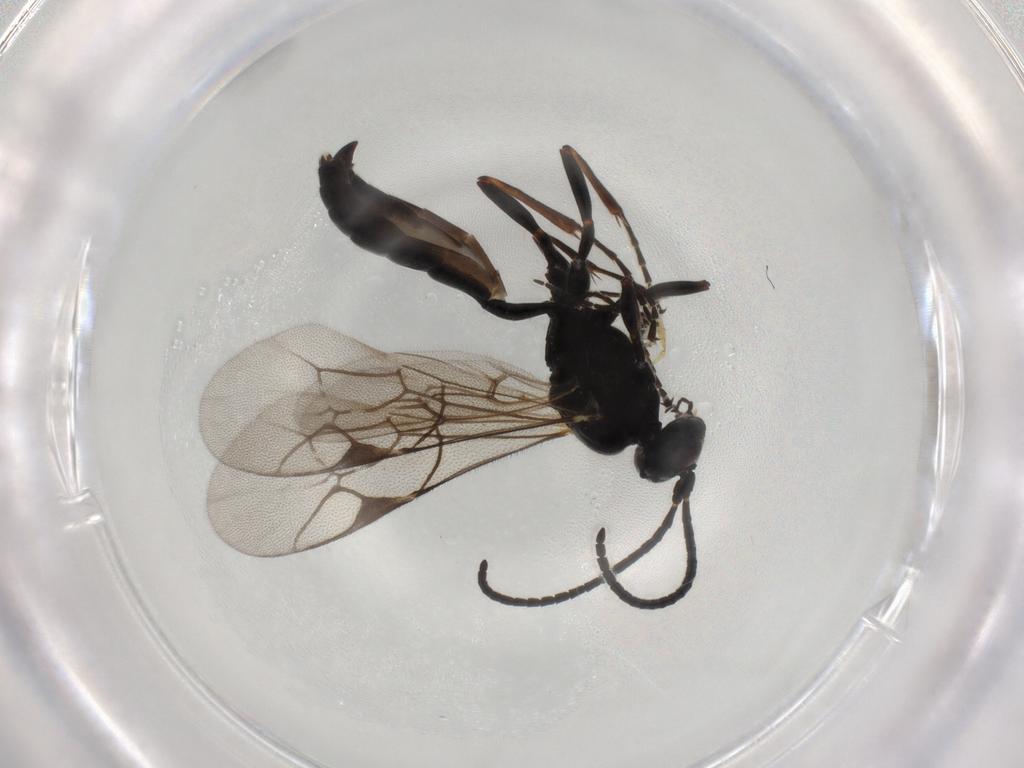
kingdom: Animalia
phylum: Arthropoda
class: Insecta
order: Hymenoptera
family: Ichneumonidae
